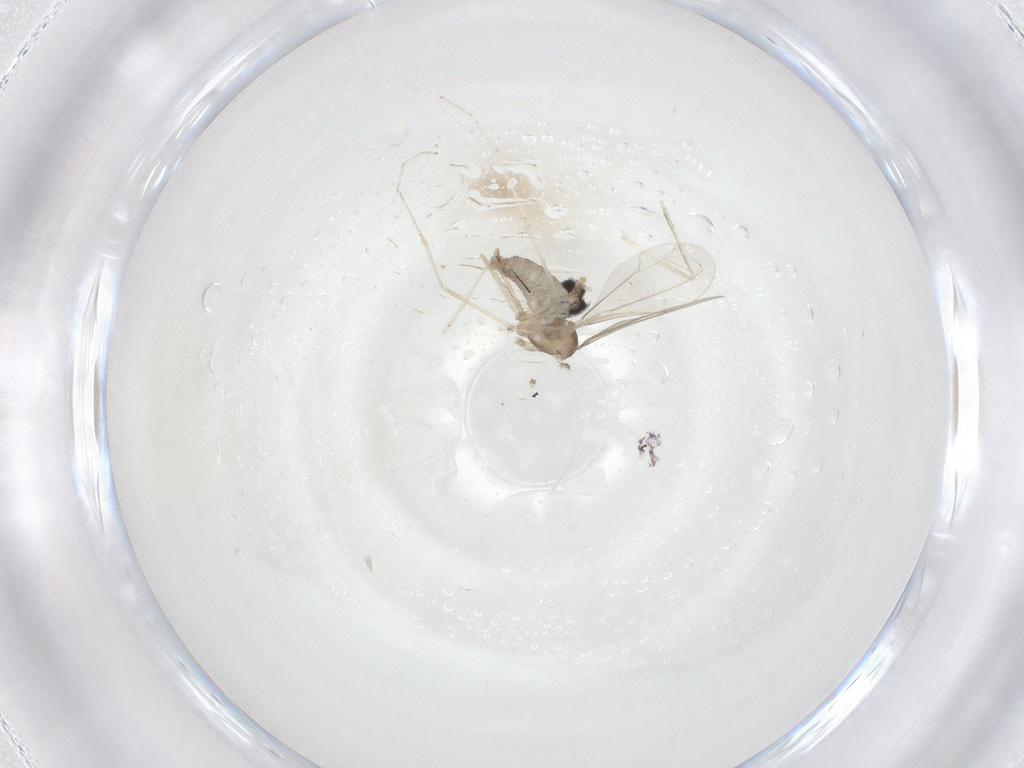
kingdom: Animalia
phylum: Arthropoda
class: Insecta
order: Diptera
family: Cecidomyiidae
